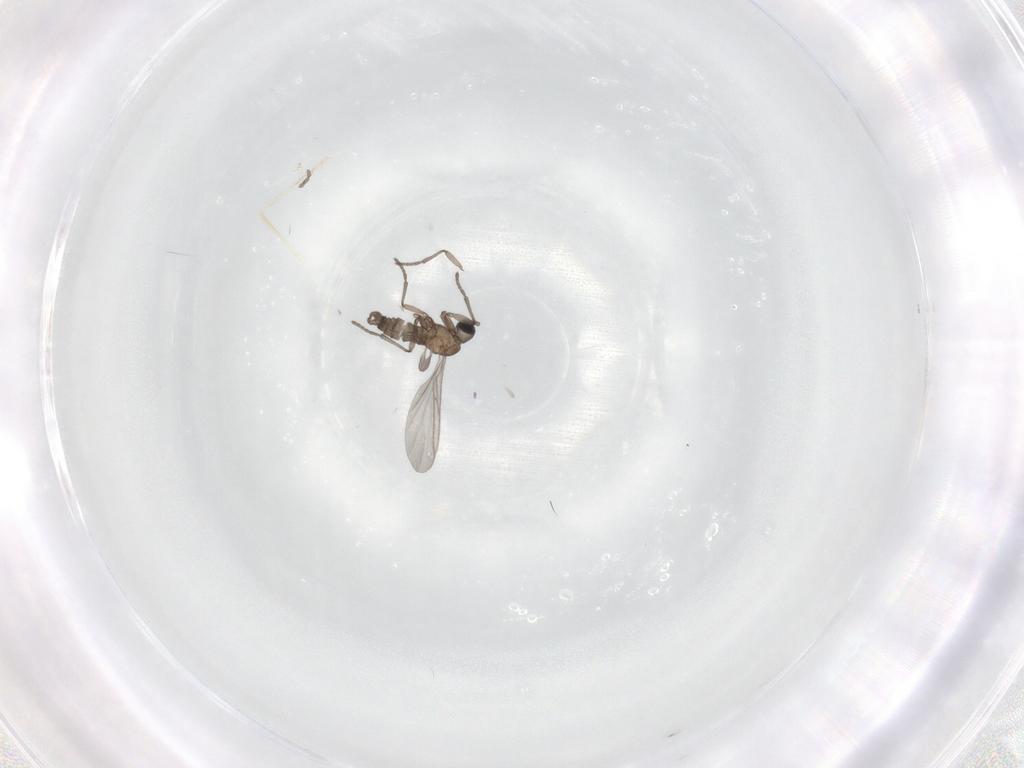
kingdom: Animalia
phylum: Arthropoda
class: Insecta
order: Diptera
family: Cecidomyiidae
